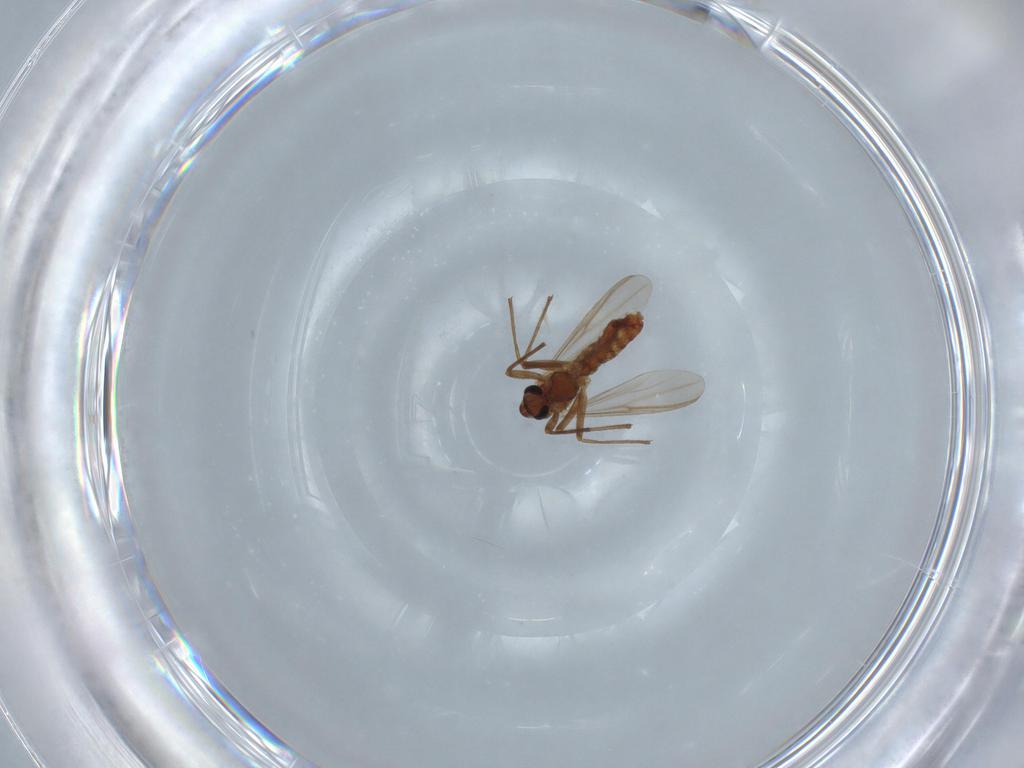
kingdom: Animalia
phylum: Arthropoda
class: Insecta
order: Diptera
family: Chironomidae
